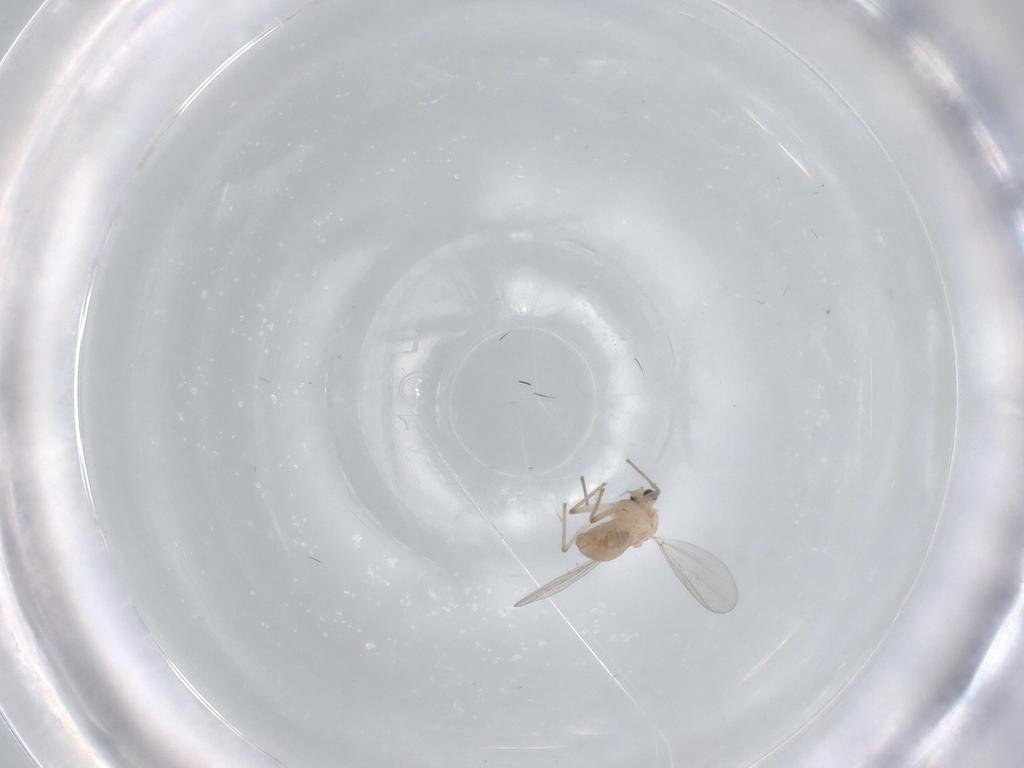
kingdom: Animalia
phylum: Arthropoda
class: Insecta
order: Diptera
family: Chironomidae
